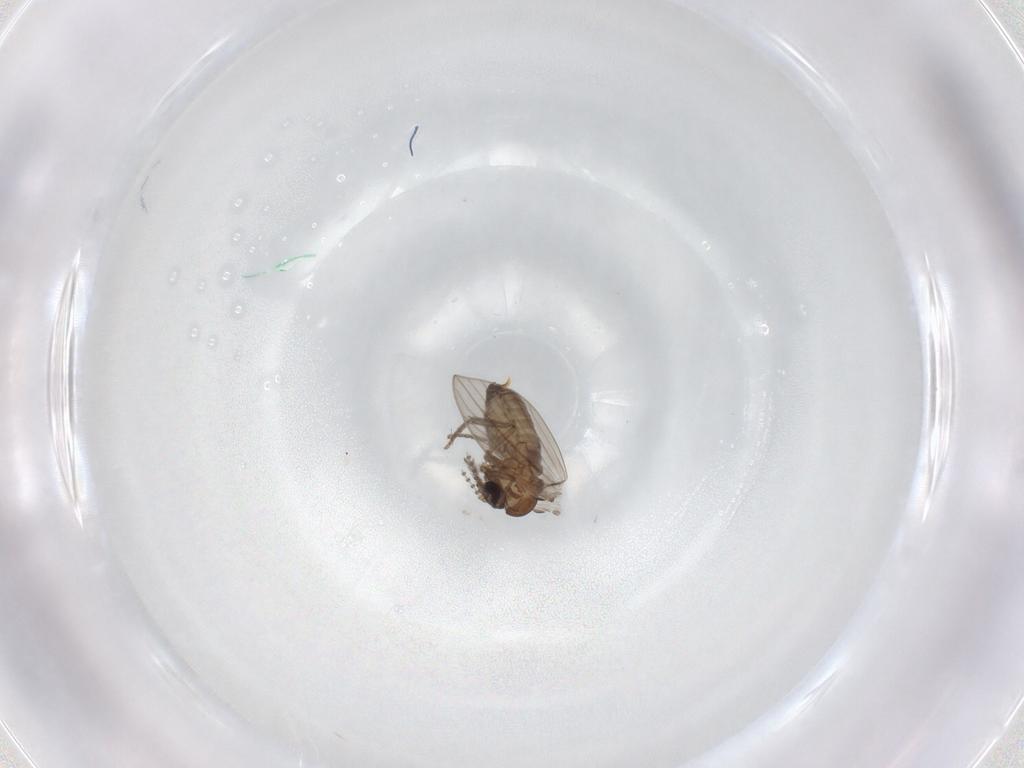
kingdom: Animalia
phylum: Arthropoda
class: Insecta
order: Diptera
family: Psychodidae
